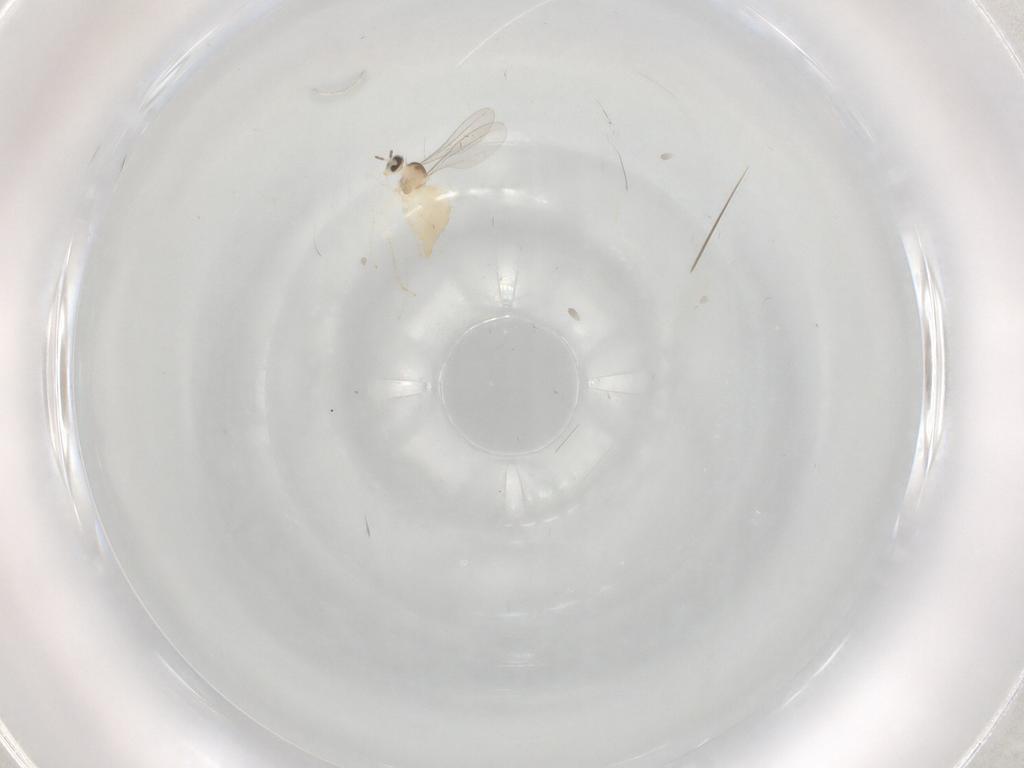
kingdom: Animalia
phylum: Arthropoda
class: Insecta
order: Diptera
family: Cecidomyiidae
